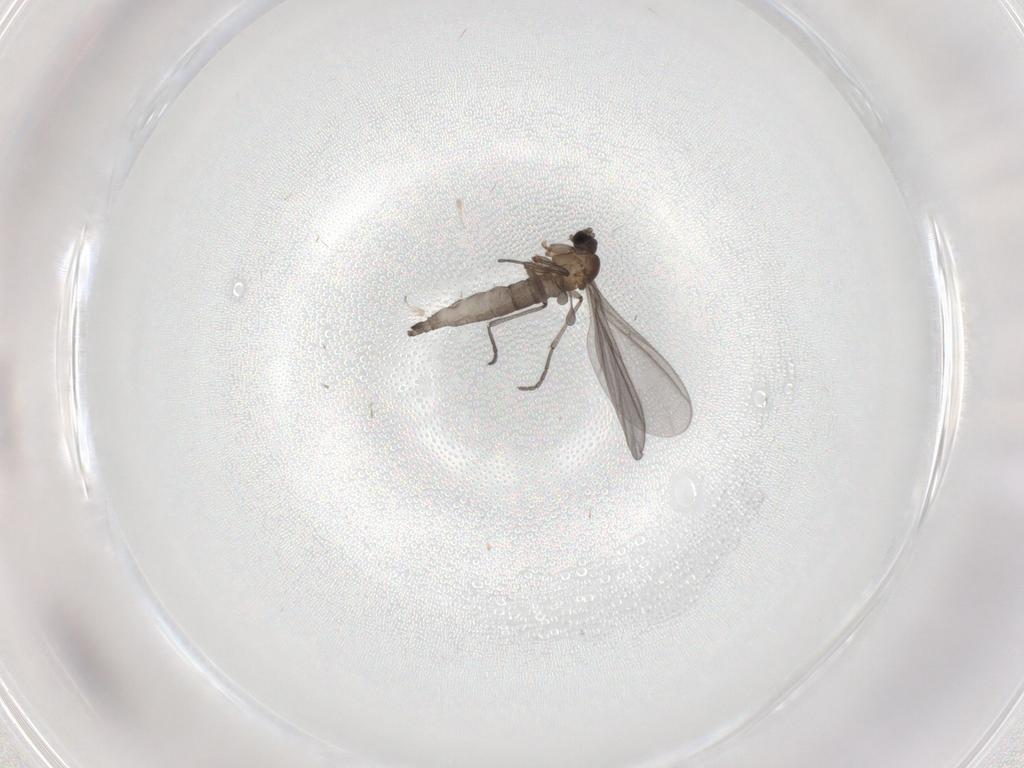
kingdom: Animalia
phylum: Arthropoda
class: Insecta
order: Diptera
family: Sciaridae
